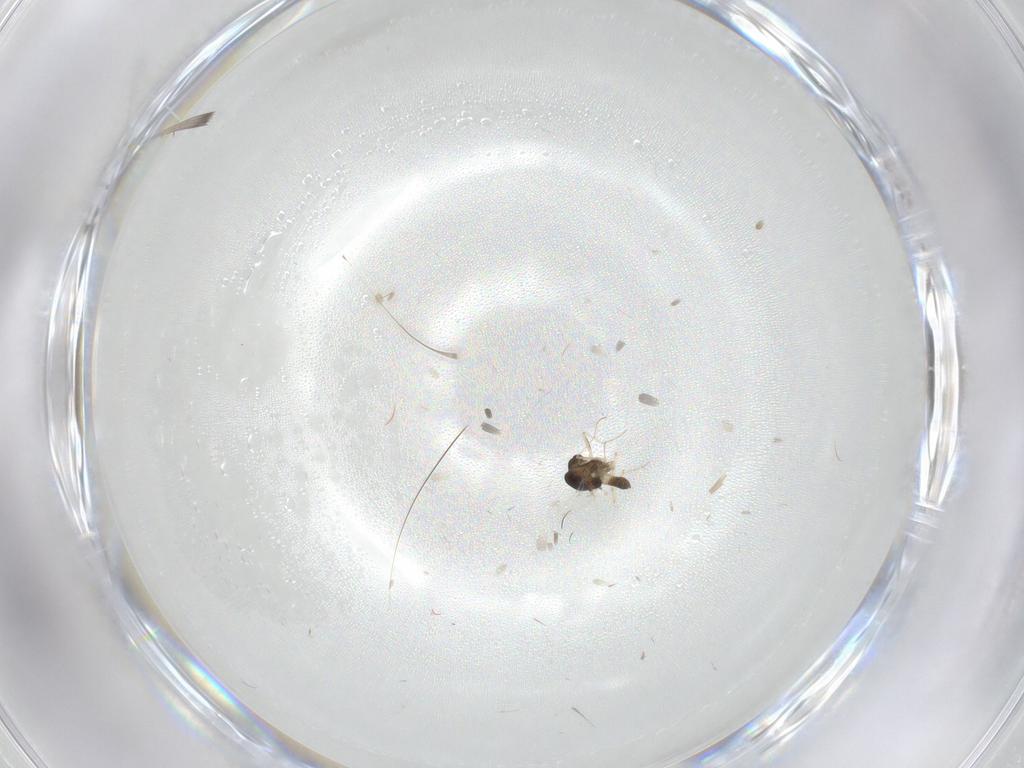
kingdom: Animalia
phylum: Arthropoda
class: Insecta
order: Diptera
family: Chironomidae
